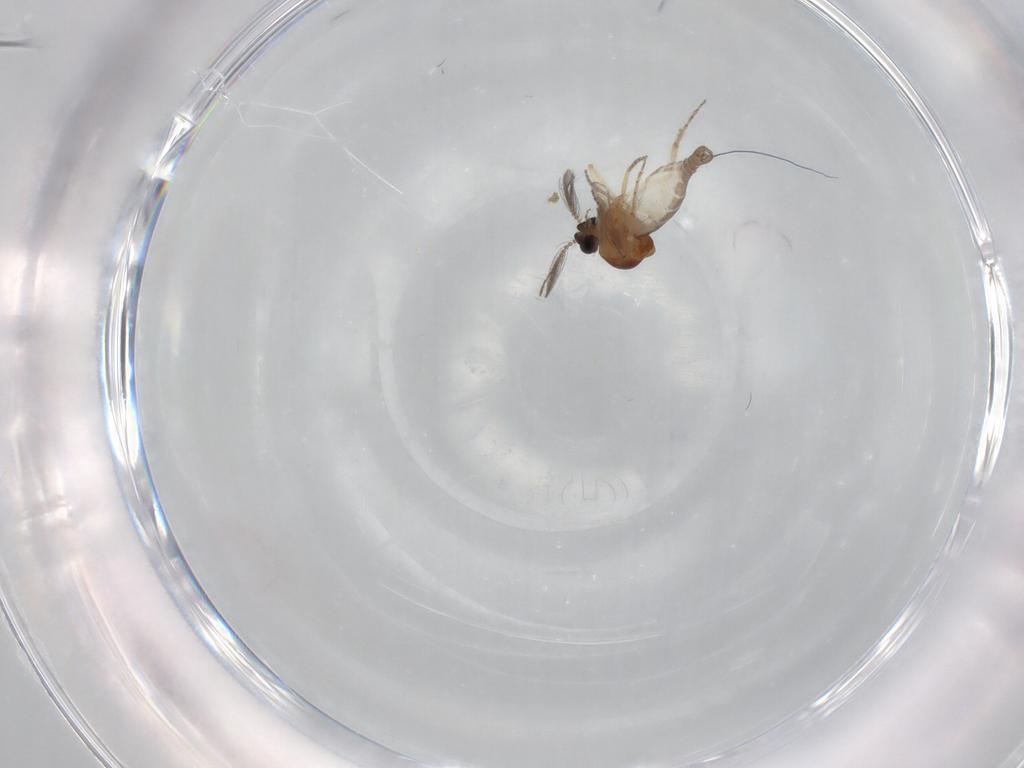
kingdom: Animalia
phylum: Arthropoda
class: Insecta
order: Diptera
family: Ceratopogonidae
